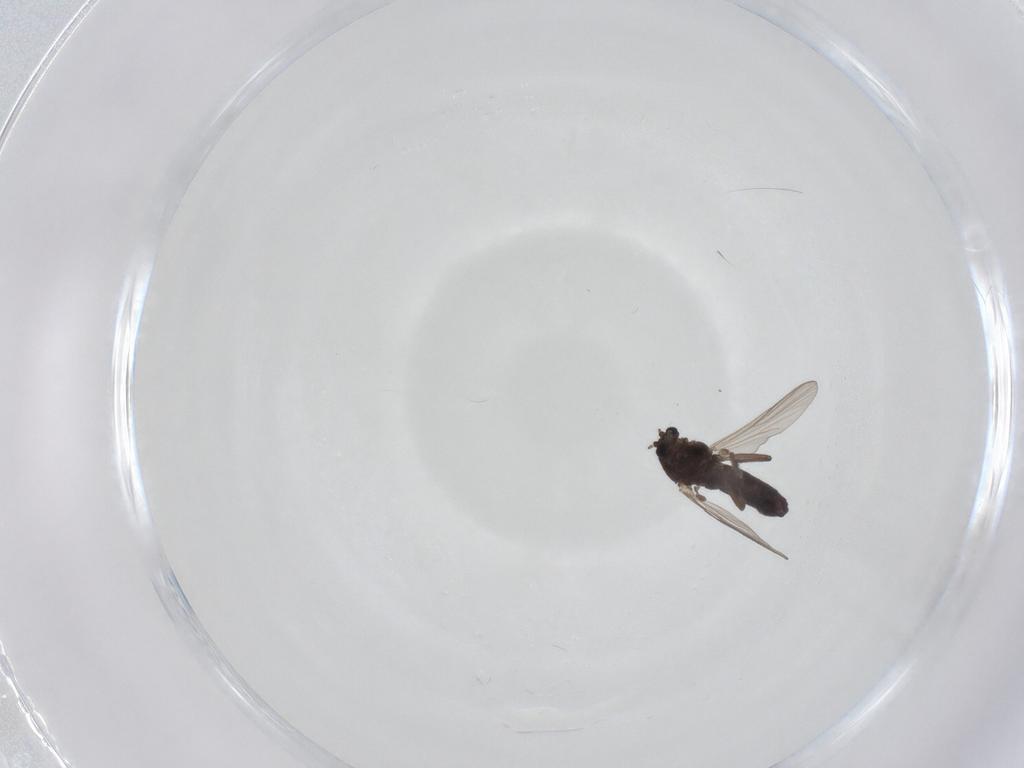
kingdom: Animalia
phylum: Arthropoda
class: Insecta
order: Diptera
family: Chironomidae
